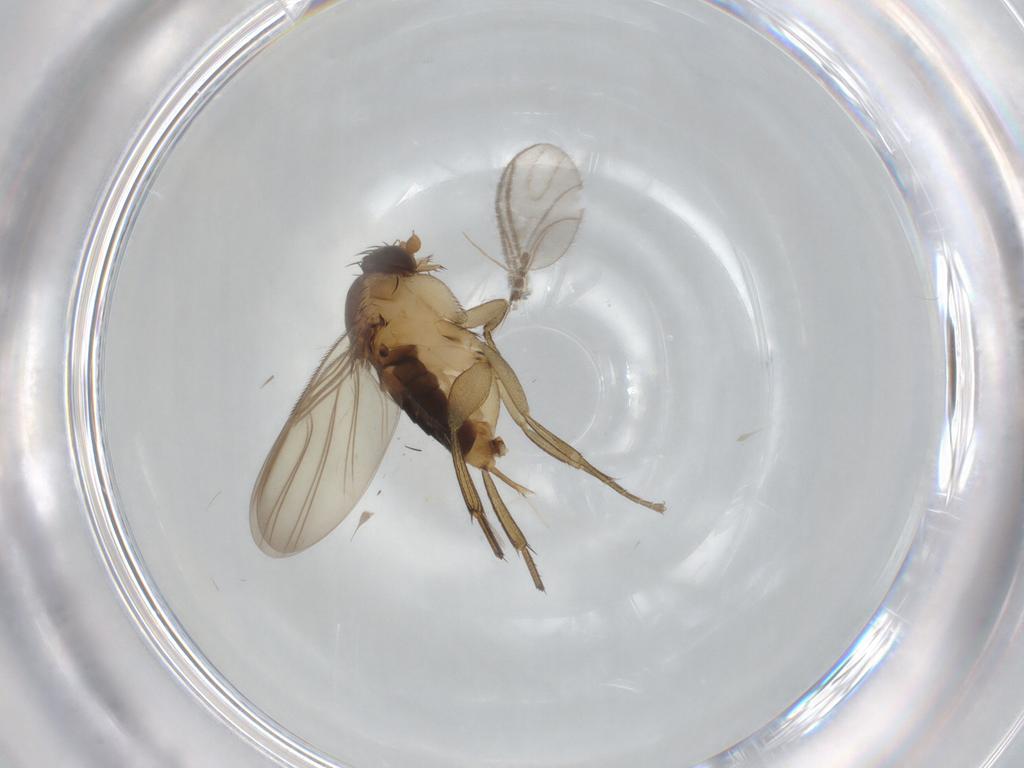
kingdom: Animalia
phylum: Arthropoda
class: Insecta
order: Diptera
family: Phoridae
